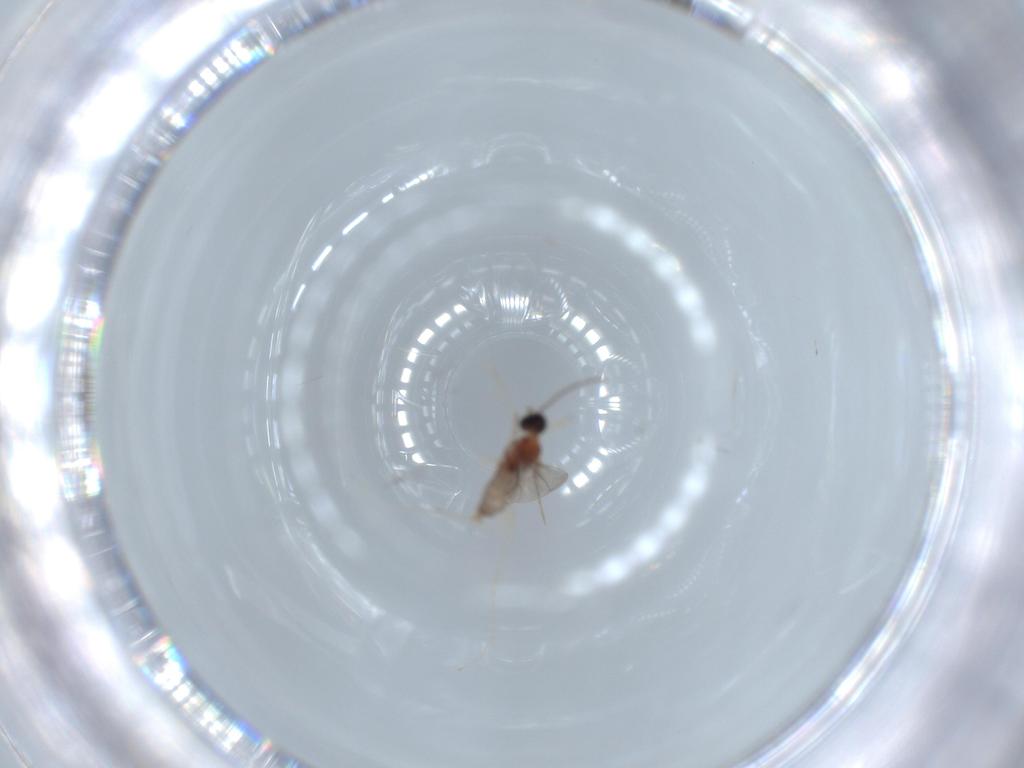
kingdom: Animalia
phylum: Arthropoda
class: Insecta
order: Diptera
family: Cecidomyiidae
